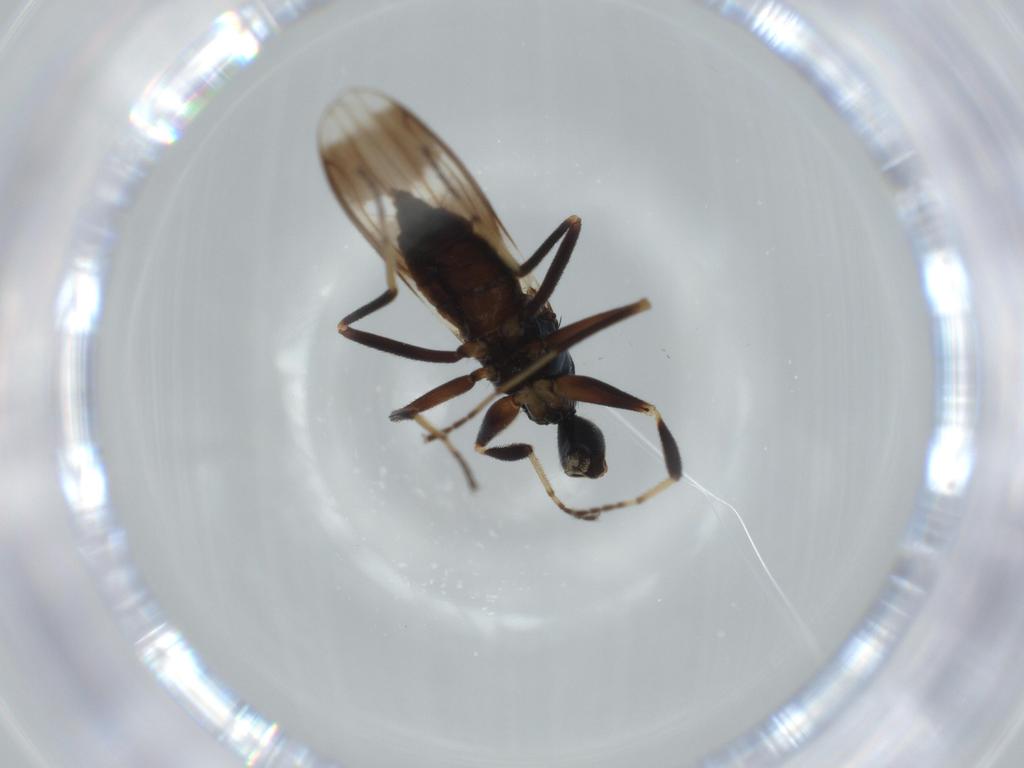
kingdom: Animalia
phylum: Arthropoda
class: Insecta
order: Diptera
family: Hybotidae
